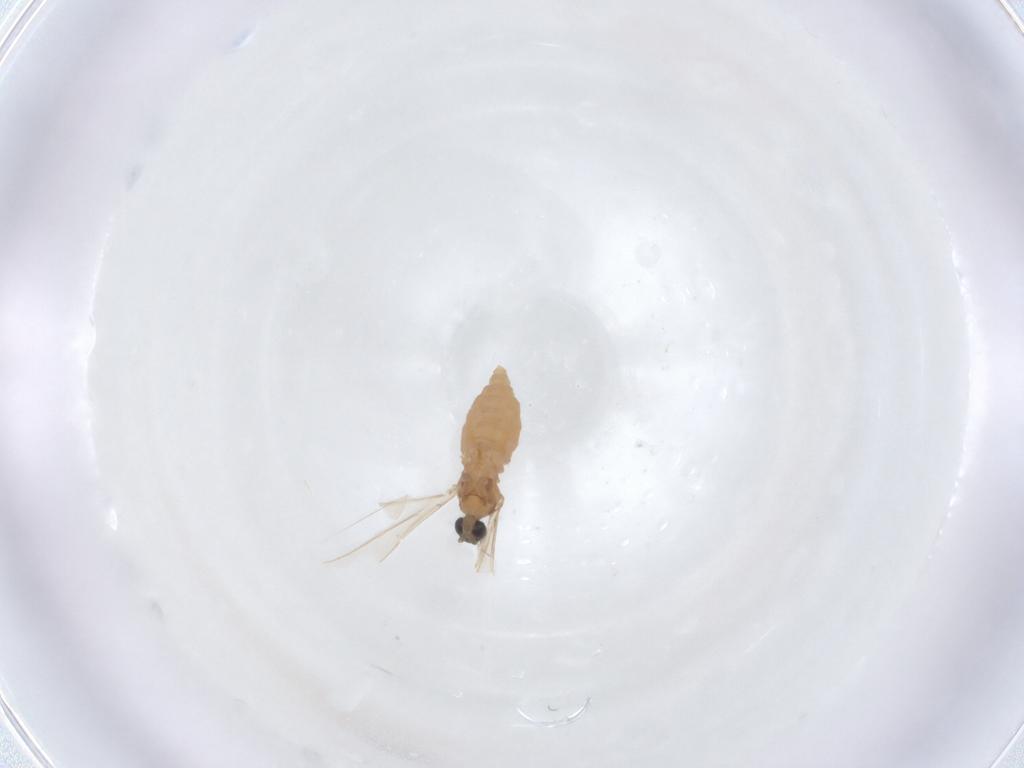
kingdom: Animalia
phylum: Arthropoda
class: Insecta
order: Diptera
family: Cecidomyiidae
